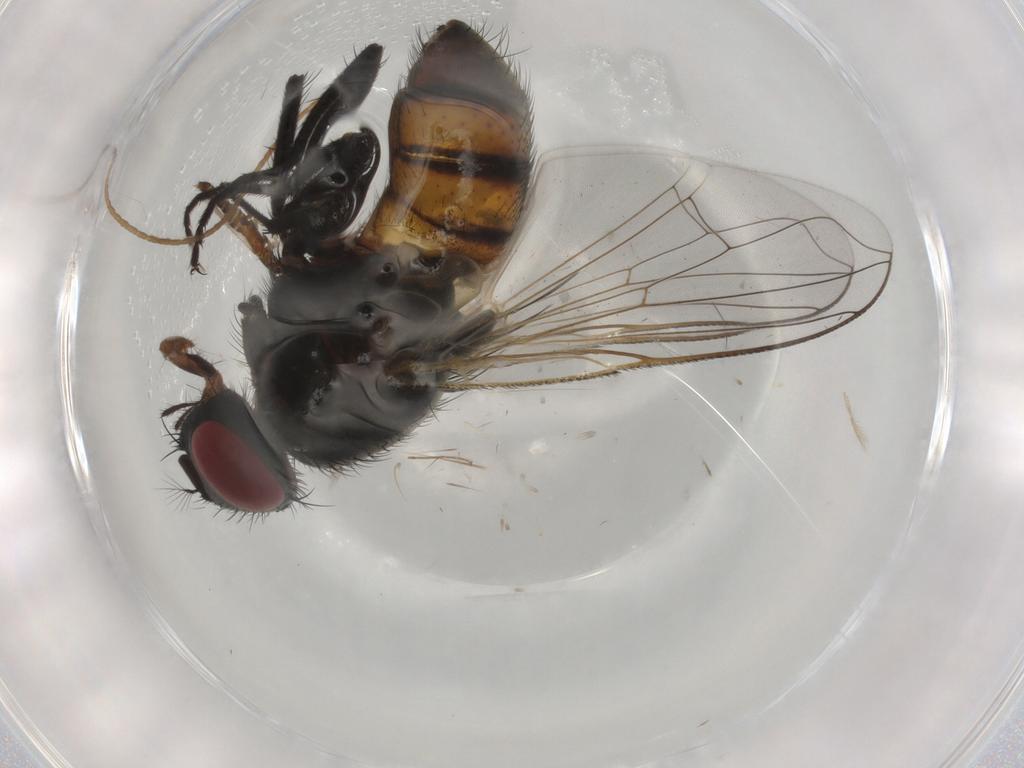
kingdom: Animalia
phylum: Arthropoda
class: Insecta
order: Diptera
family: Muscidae
